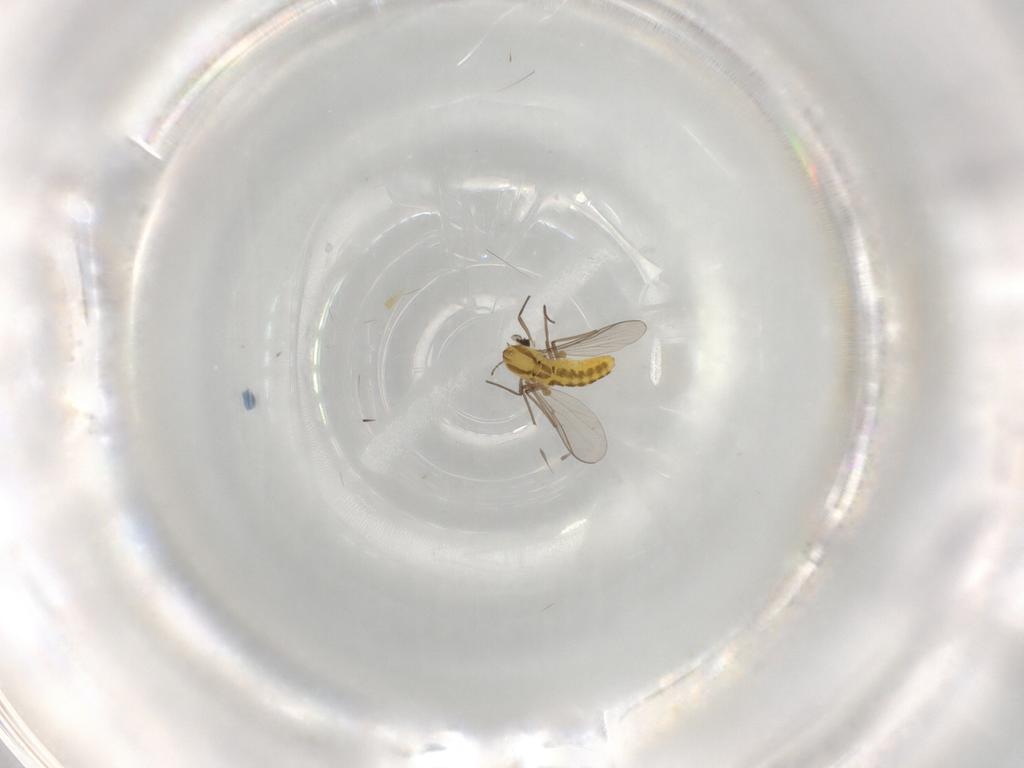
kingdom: Animalia
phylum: Arthropoda
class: Insecta
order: Diptera
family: Chironomidae
